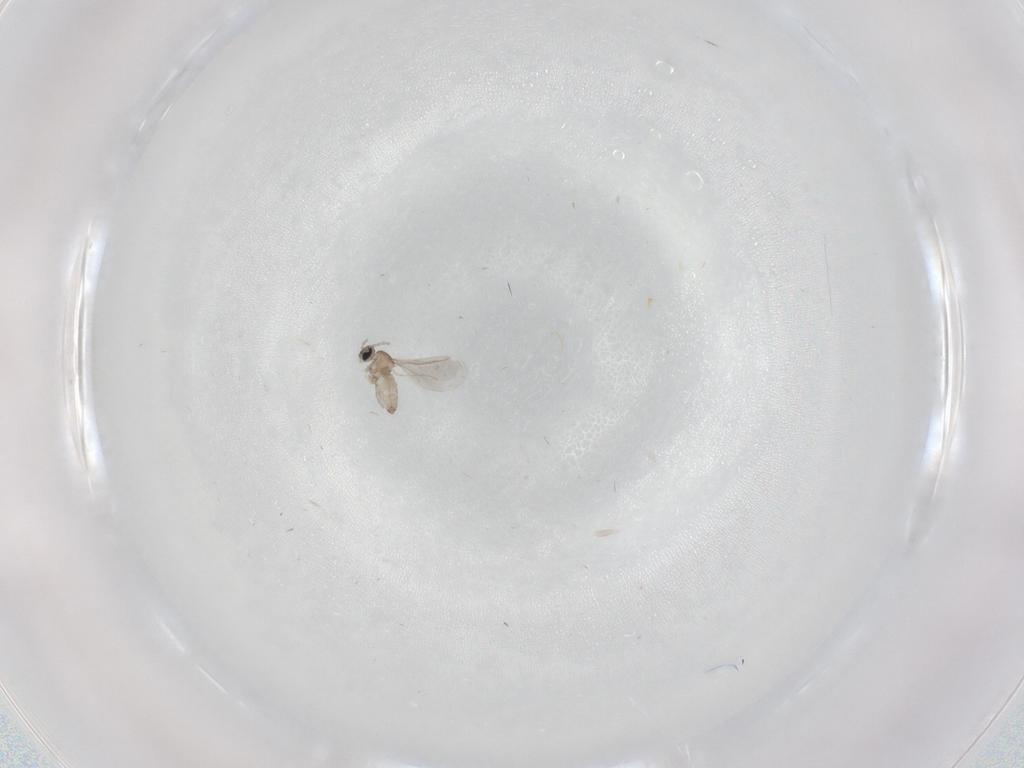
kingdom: Animalia
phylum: Arthropoda
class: Insecta
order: Diptera
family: Cecidomyiidae
